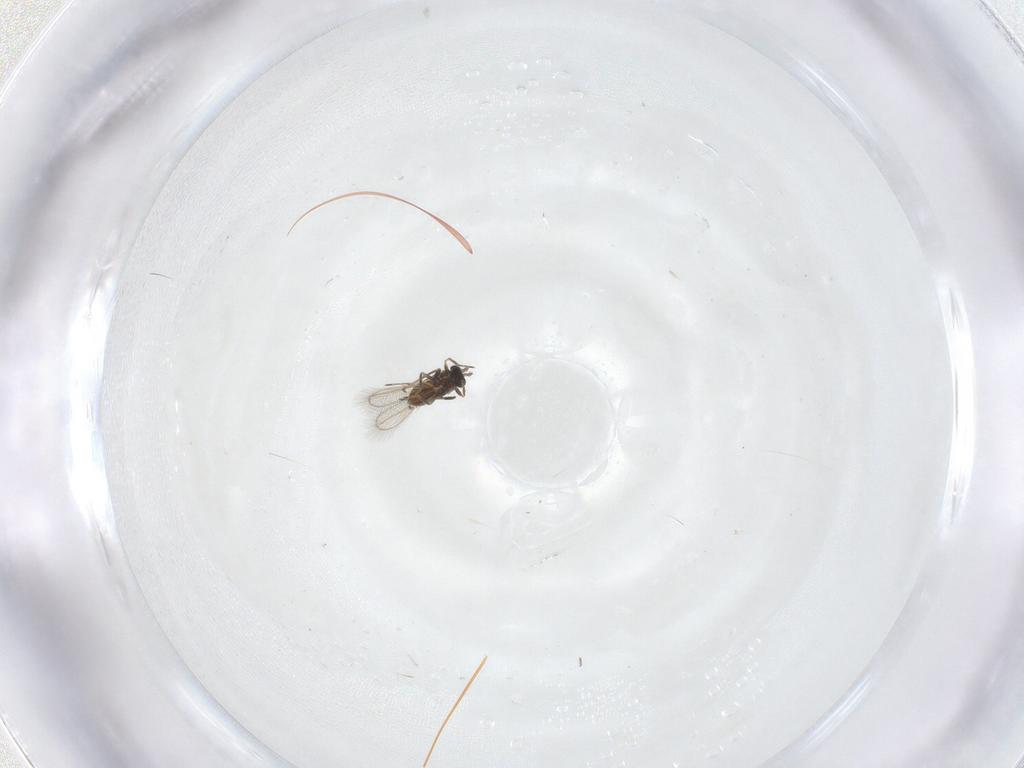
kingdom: Animalia
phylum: Arthropoda
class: Insecta
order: Hymenoptera
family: Trichogrammatidae
